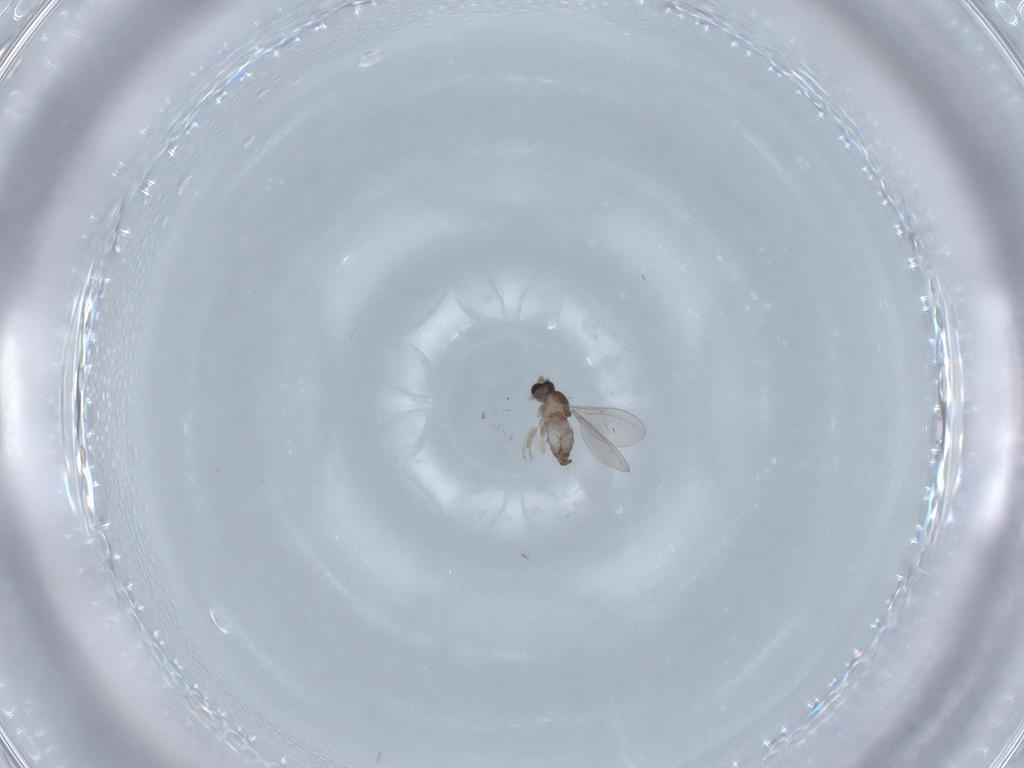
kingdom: Animalia
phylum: Arthropoda
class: Insecta
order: Diptera
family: Cecidomyiidae
